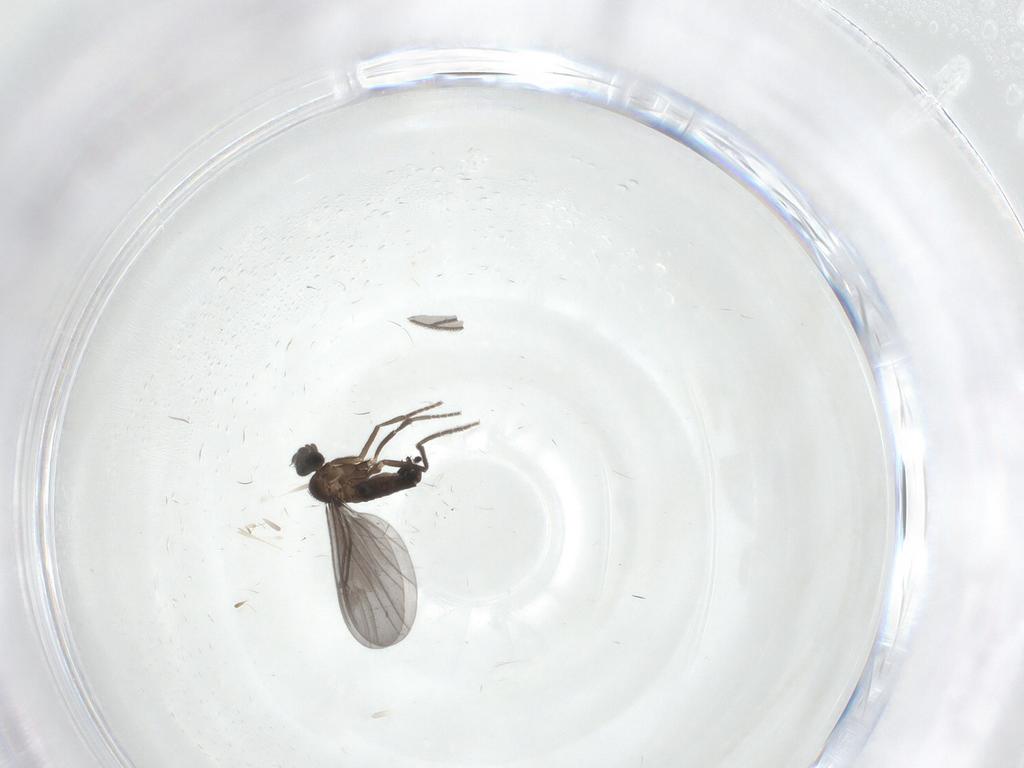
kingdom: Animalia
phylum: Arthropoda
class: Insecta
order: Diptera
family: Phoridae
